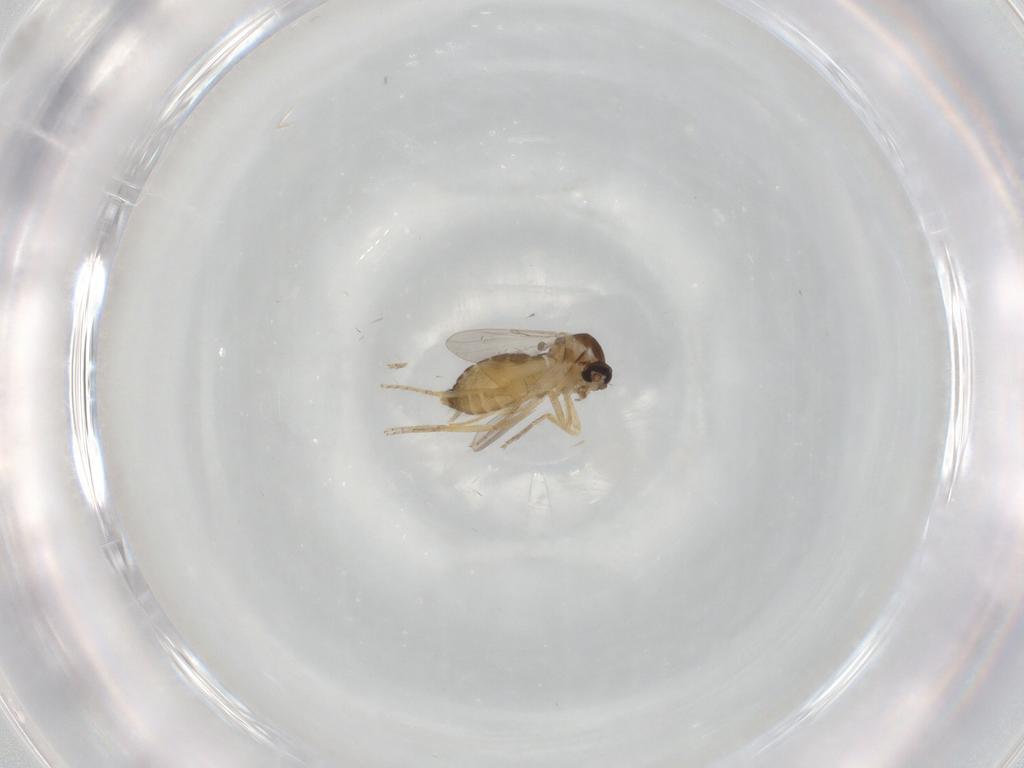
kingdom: Animalia
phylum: Arthropoda
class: Insecta
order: Diptera
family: Ceratopogonidae
